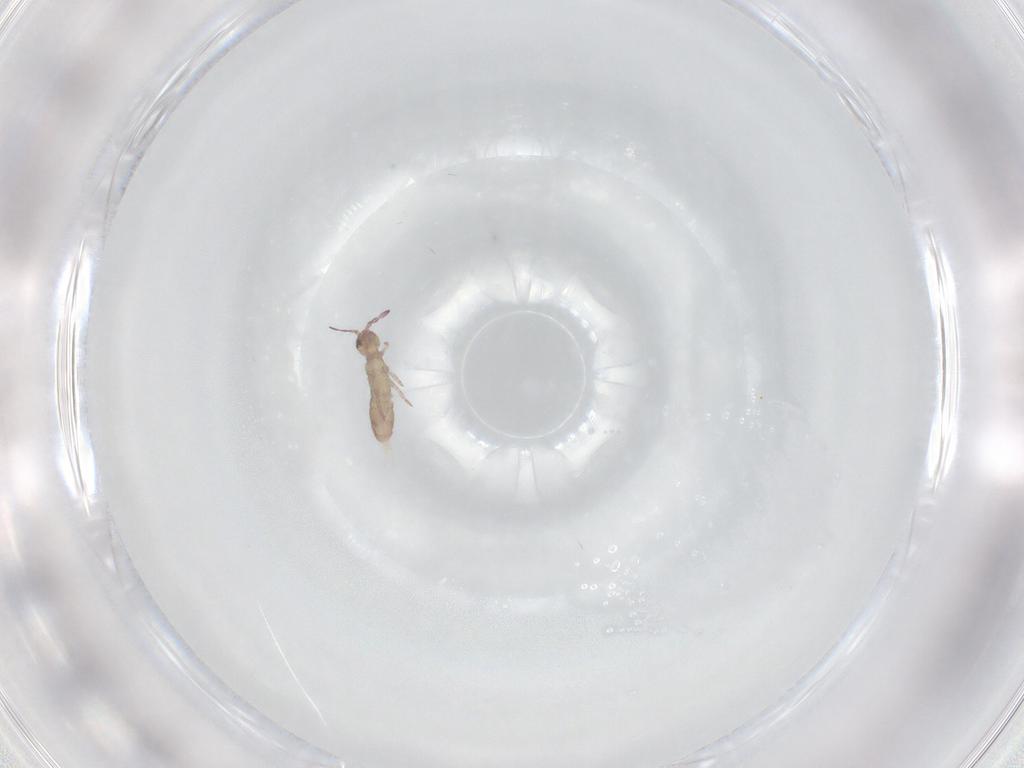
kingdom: Animalia
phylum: Arthropoda
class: Collembola
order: Entomobryomorpha
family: Isotomidae
